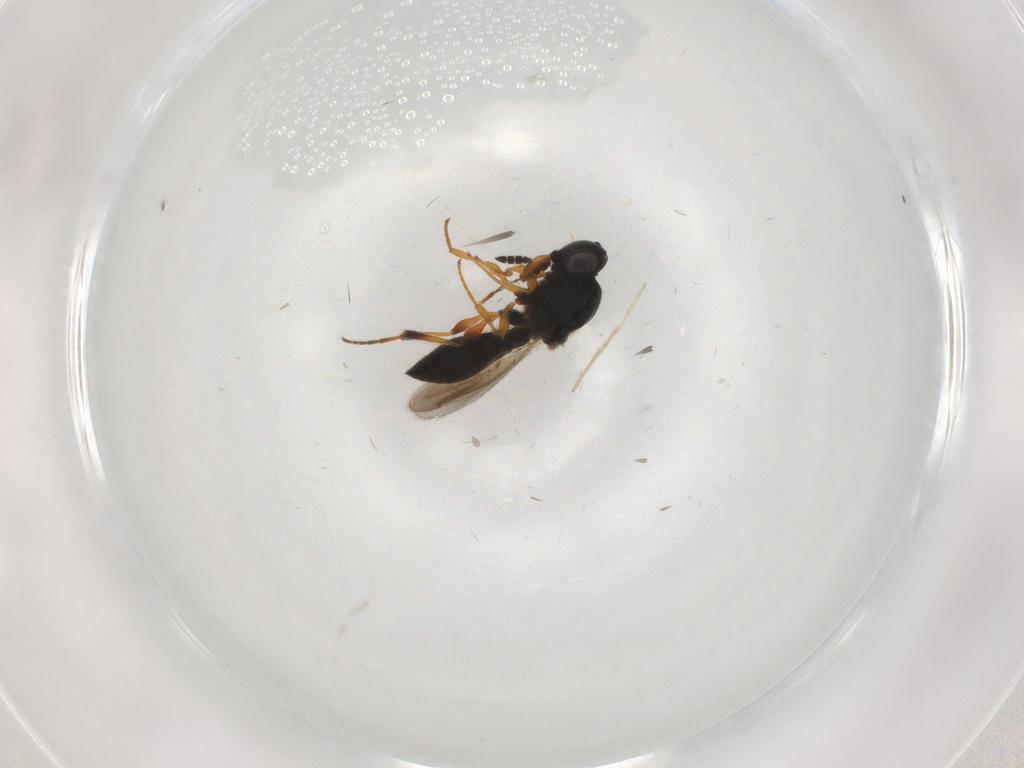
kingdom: Animalia
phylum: Arthropoda
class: Insecta
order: Hymenoptera
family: Platygastridae
